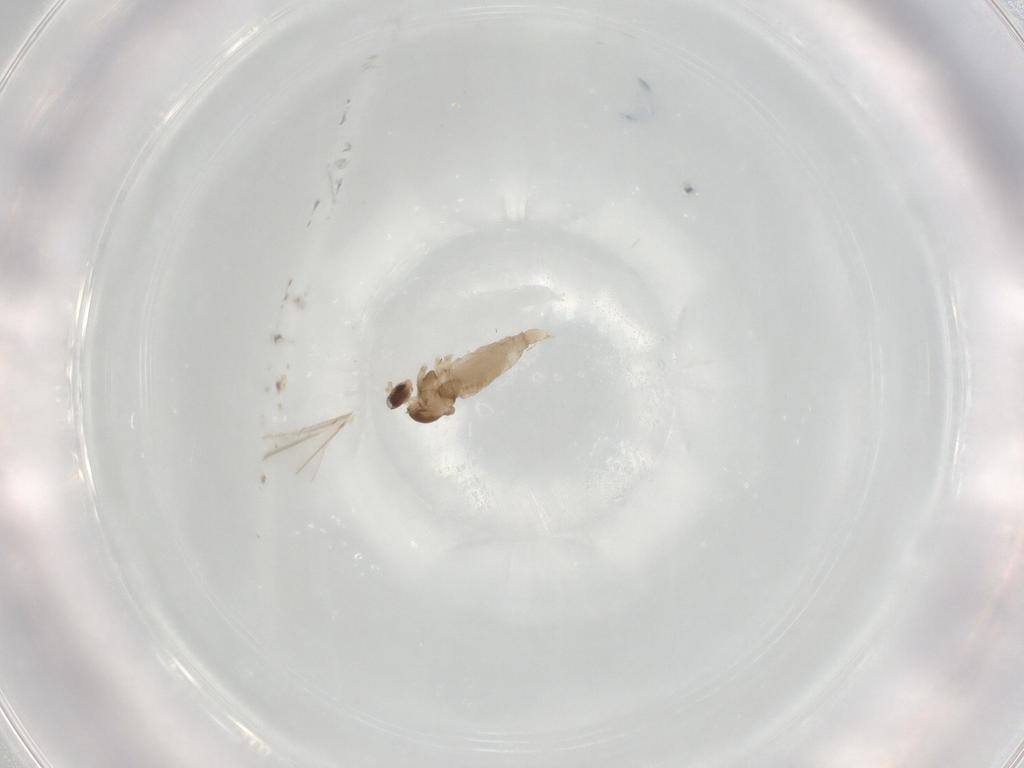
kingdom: Animalia
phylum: Arthropoda
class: Insecta
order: Diptera
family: Cecidomyiidae
